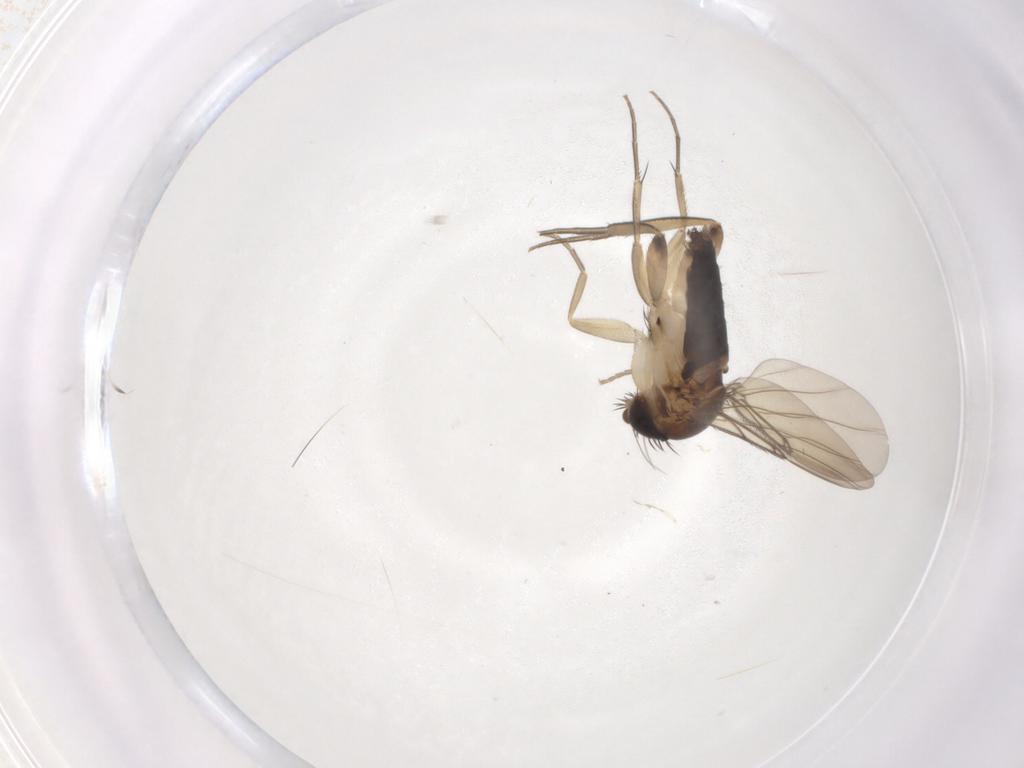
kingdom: Animalia
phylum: Arthropoda
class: Insecta
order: Diptera
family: Phoridae
